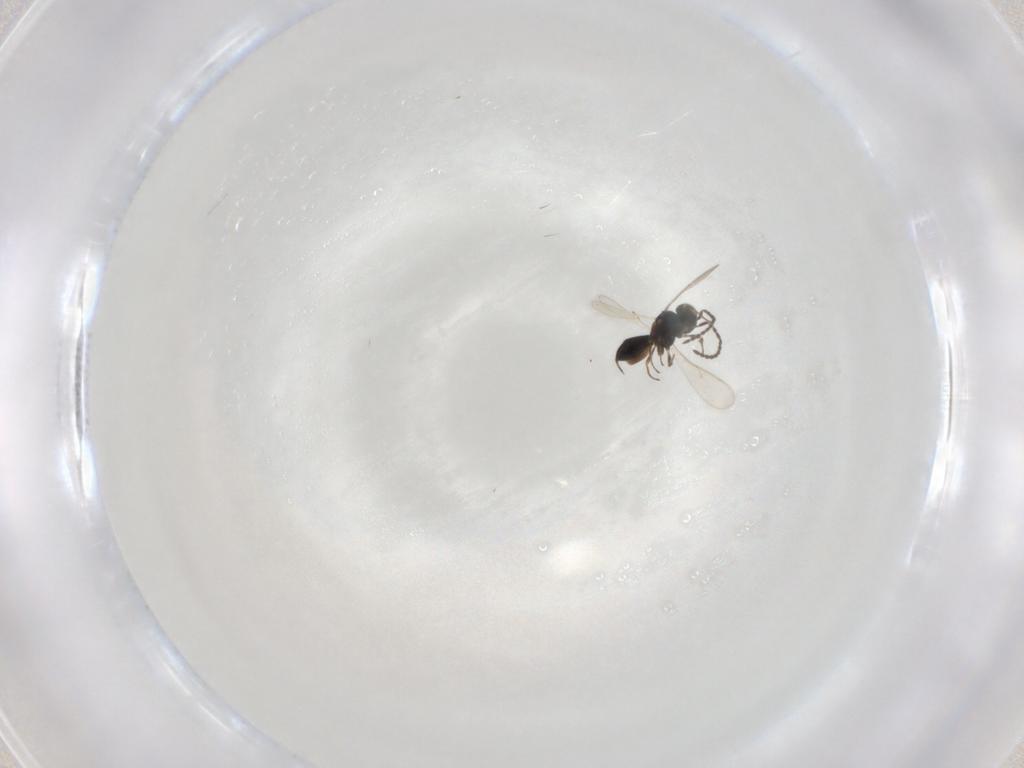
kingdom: Animalia
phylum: Arthropoda
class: Insecta
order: Hymenoptera
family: Scelionidae
